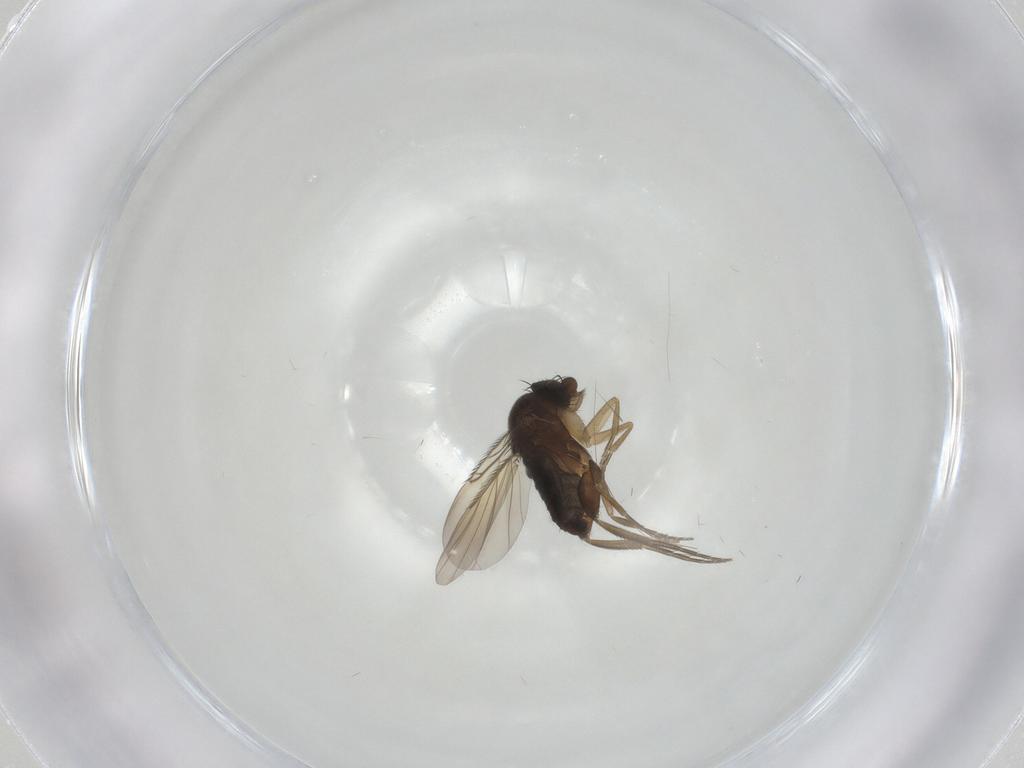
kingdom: Animalia
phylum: Arthropoda
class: Insecta
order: Diptera
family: Phoridae
